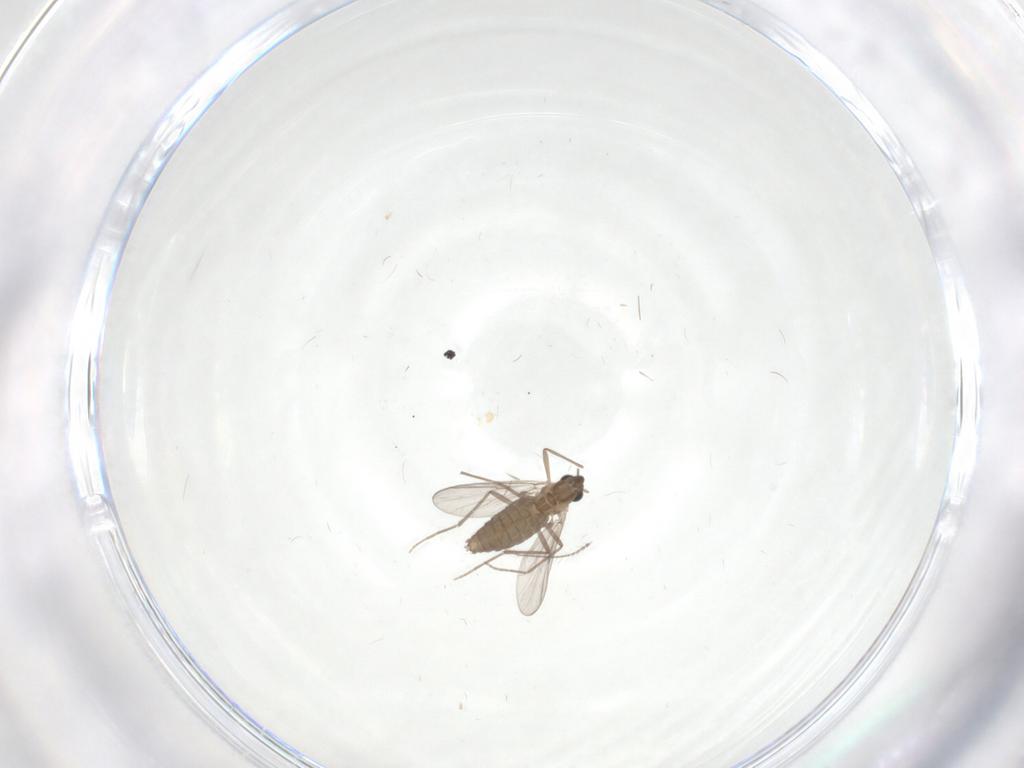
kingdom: Animalia
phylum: Arthropoda
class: Insecta
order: Diptera
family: Chironomidae
